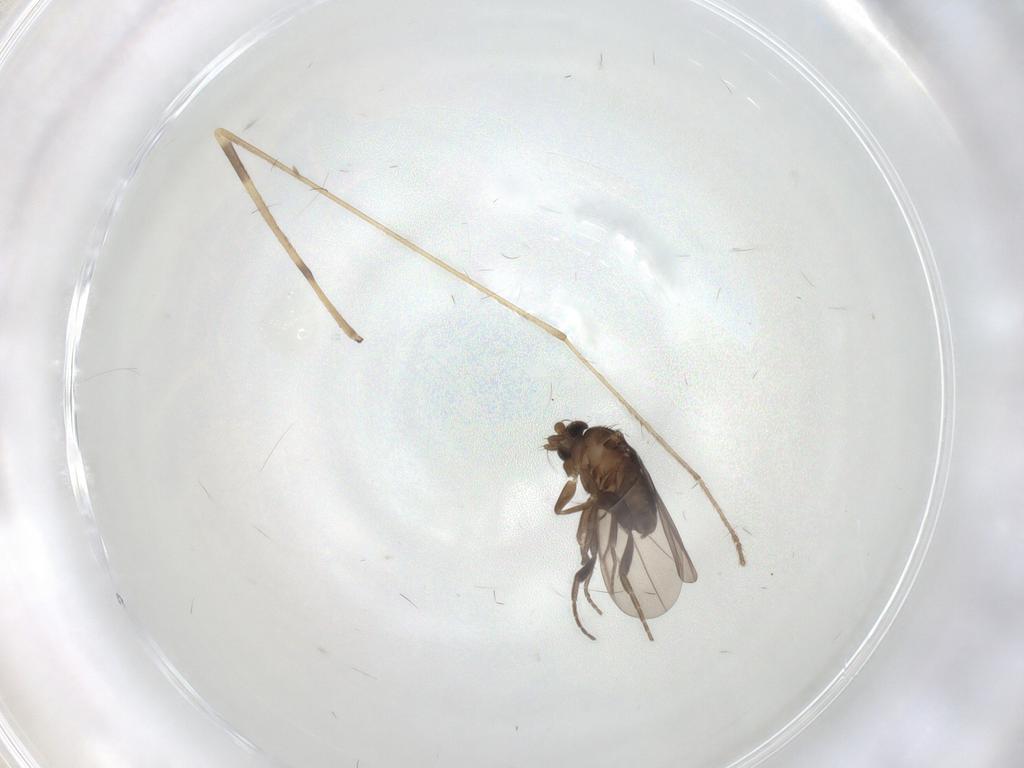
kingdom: Animalia
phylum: Arthropoda
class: Insecta
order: Diptera
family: Phoridae
